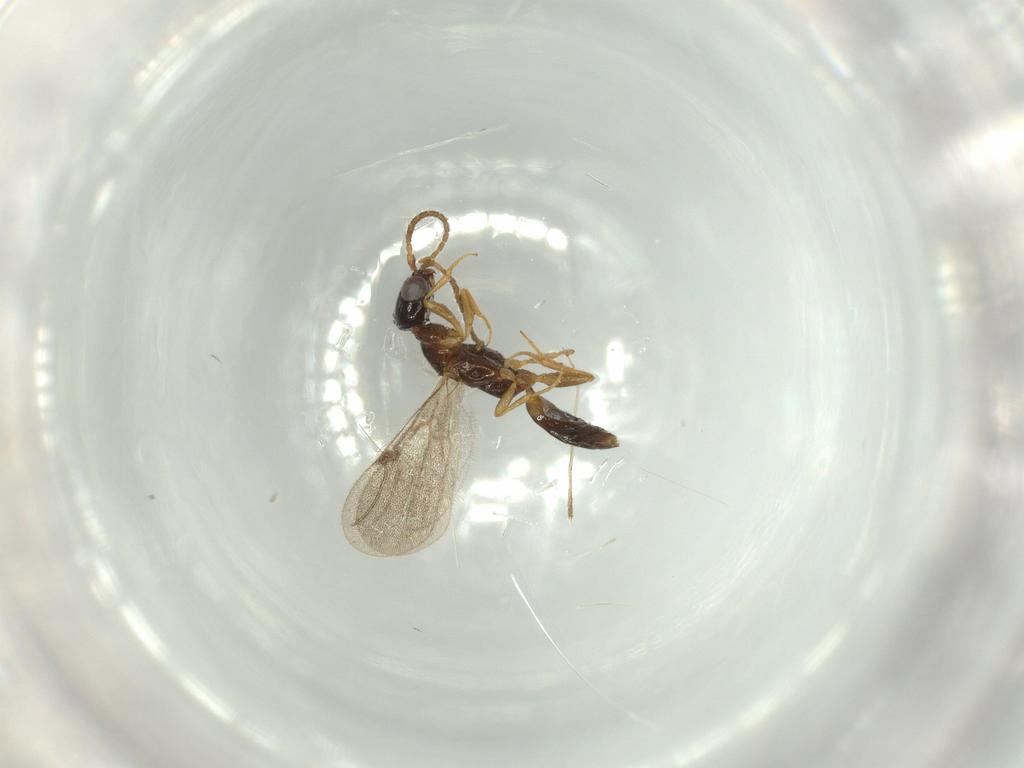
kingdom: Animalia
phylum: Arthropoda
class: Insecta
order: Hymenoptera
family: Bethylidae
